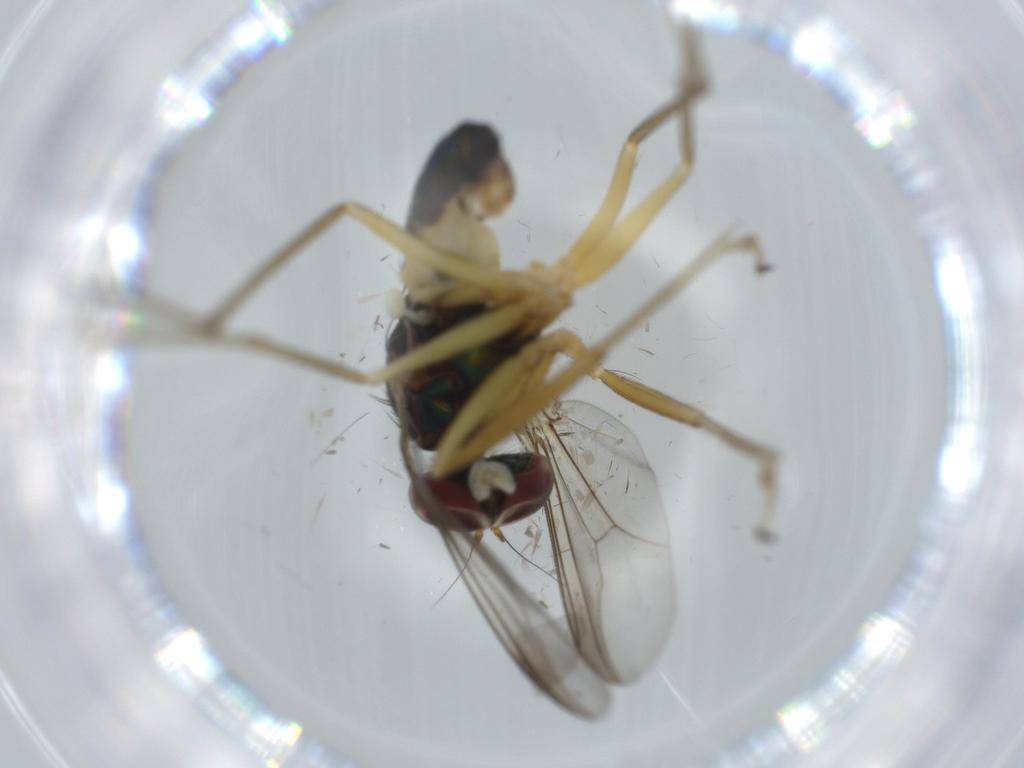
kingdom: Animalia
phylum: Arthropoda
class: Insecta
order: Diptera
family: Dolichopodidae
